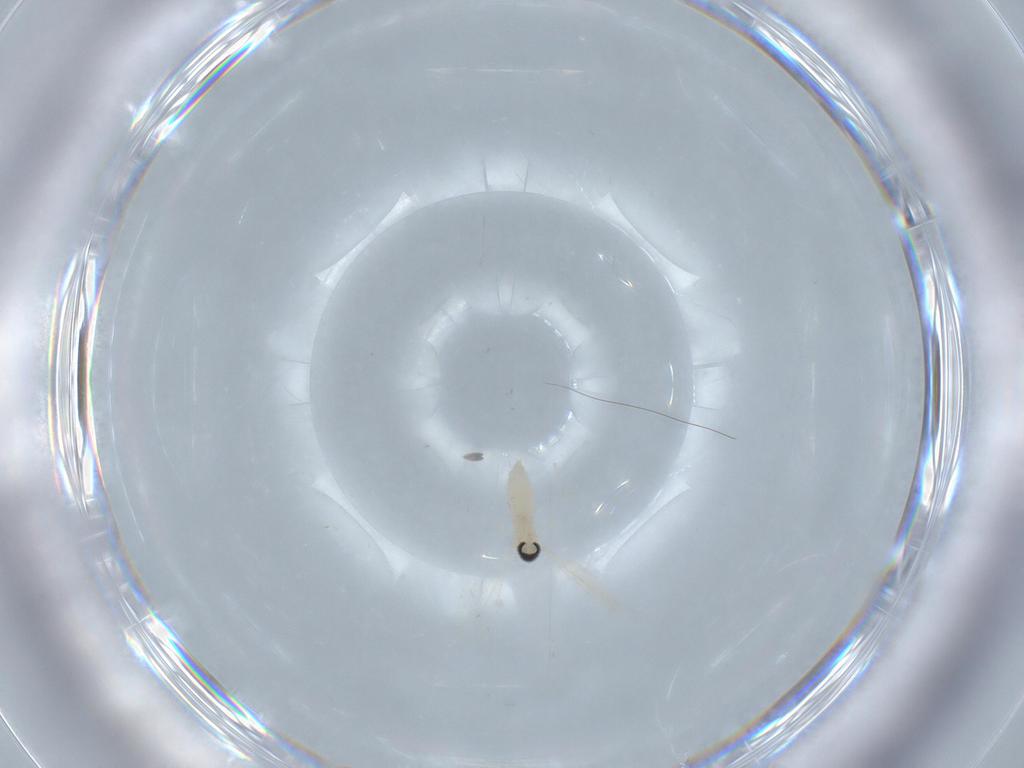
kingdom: Animalia
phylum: Arthropoda
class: Insecta
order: Diptera
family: Cecidomyiidae
